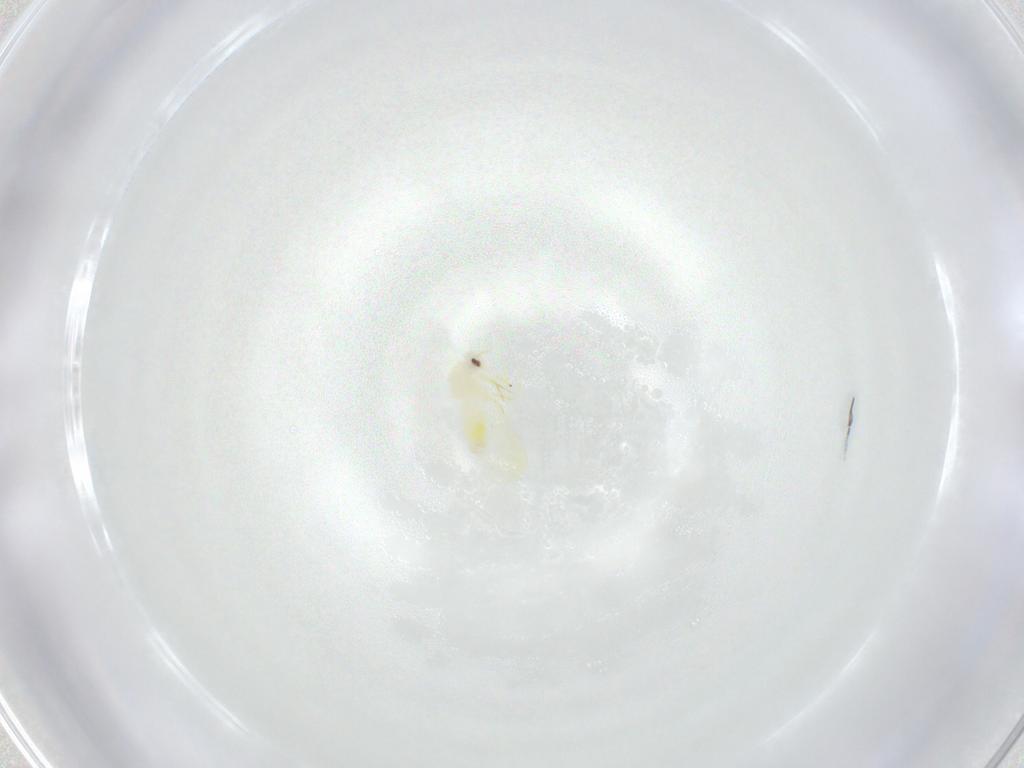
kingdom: Animalia
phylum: Arthropoda
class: Insecta
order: Hemiptera
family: Aleyrodidae
